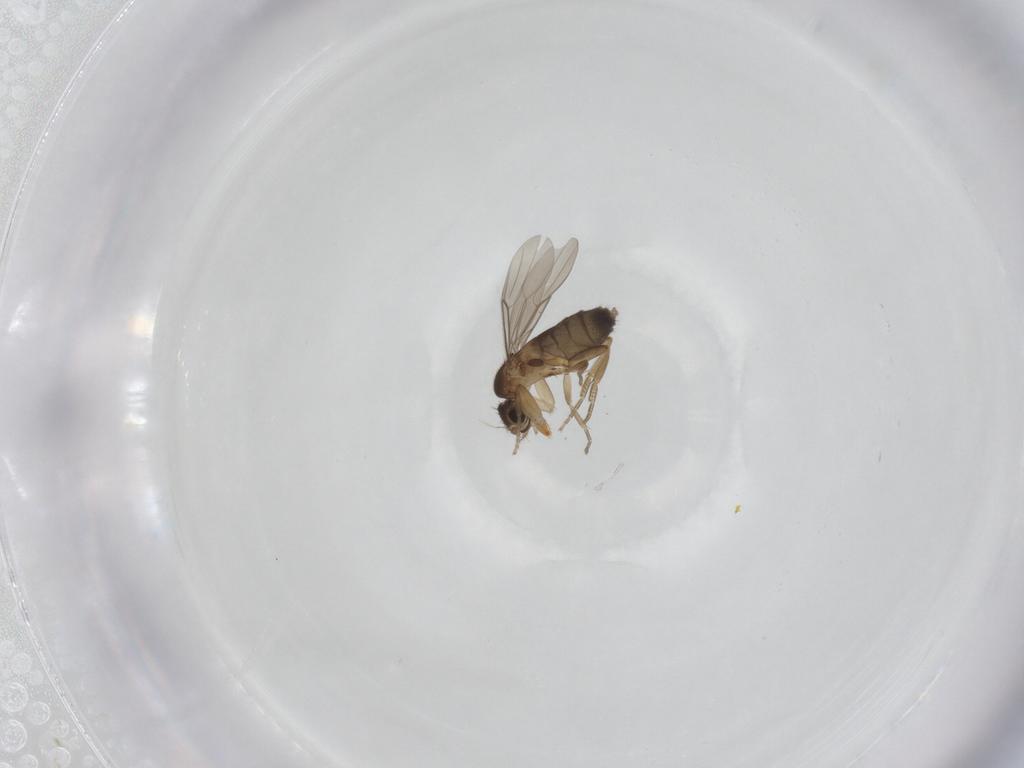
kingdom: Animalia
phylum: Arthropoda
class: Insecta
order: Diptera
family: Phoridae
